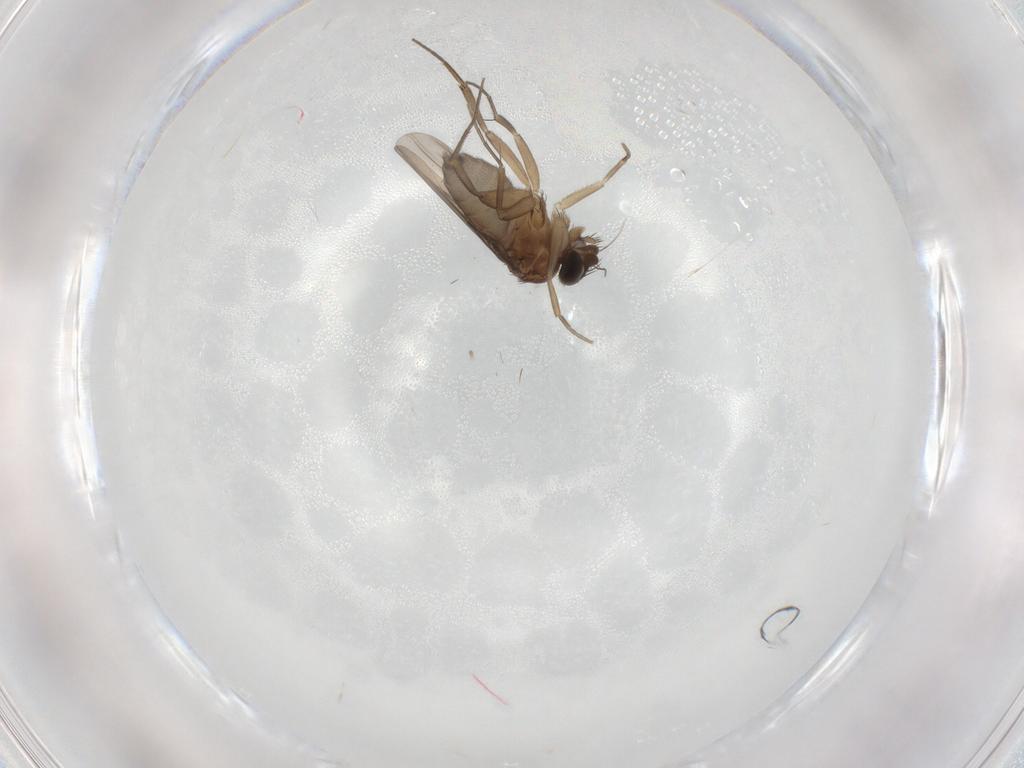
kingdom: Animalia
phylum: Arthropoda
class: Insecta
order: Diptera
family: Phoridae
